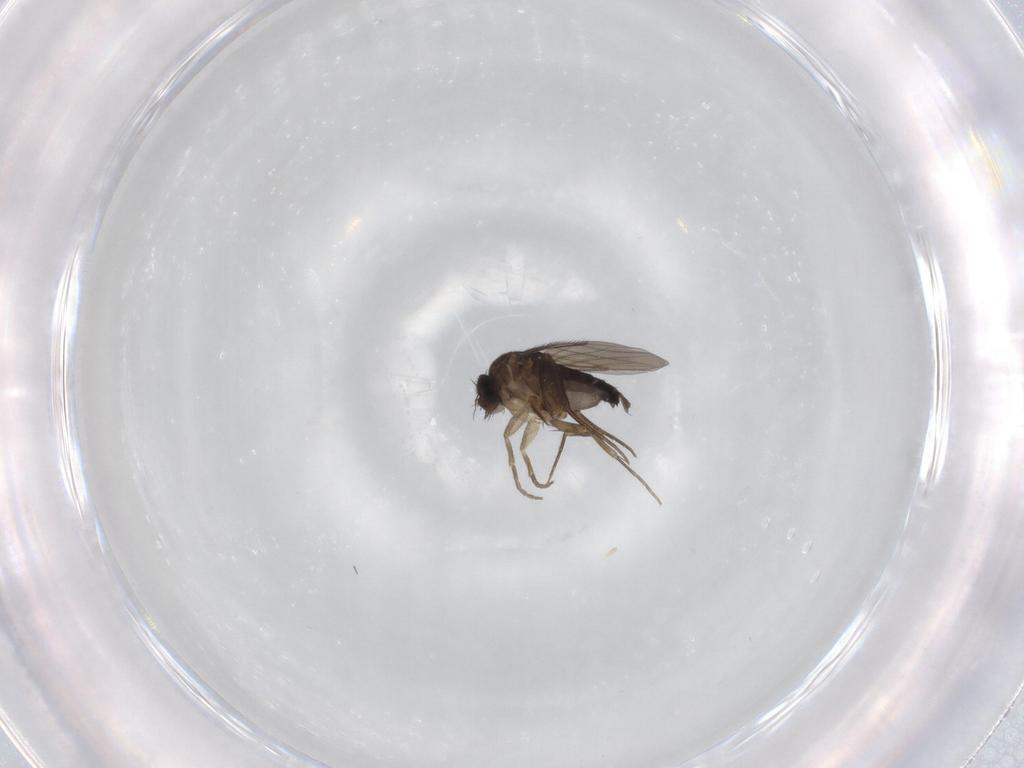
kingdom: Animalia
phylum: Arthropoda
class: Insecta
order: Diptera
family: Phoridae
